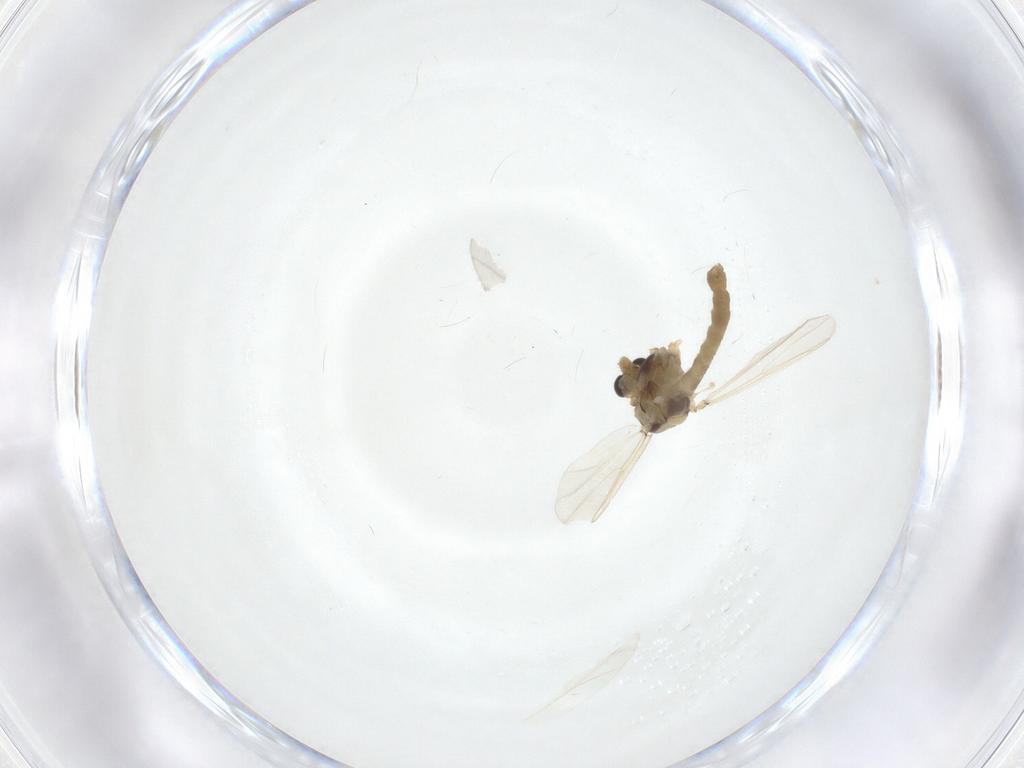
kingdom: Animalia
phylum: Arthropoda
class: Insecta
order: Diptera
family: Chironomidae
